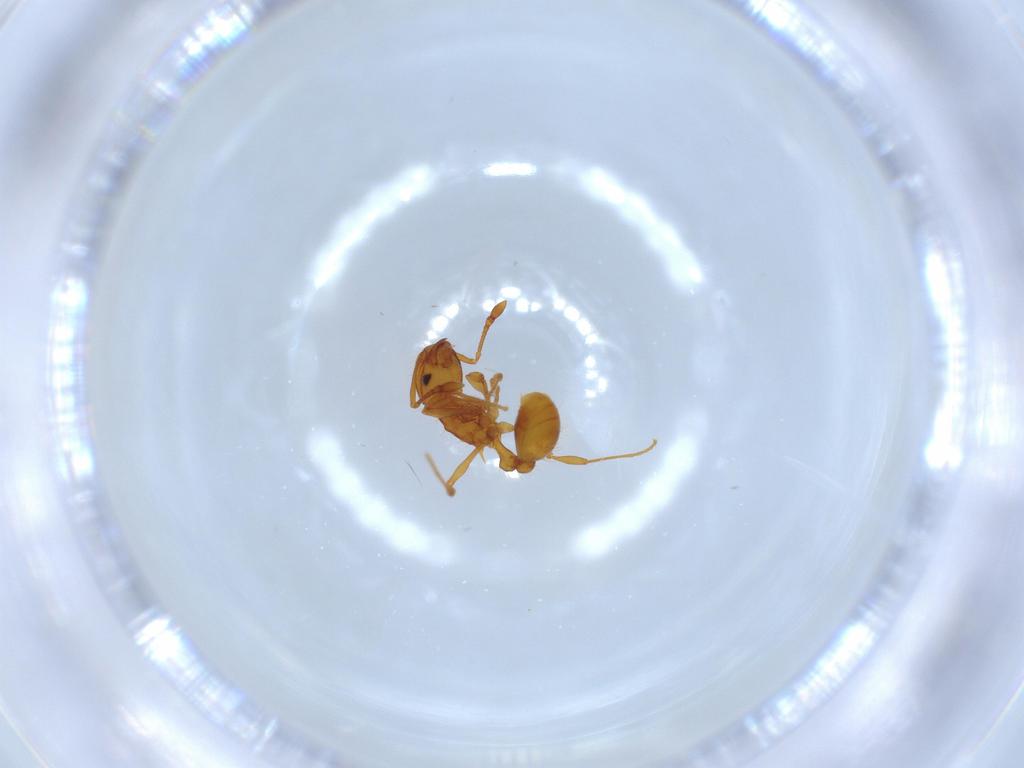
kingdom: Animalia
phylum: Arthropoda
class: Insecta
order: Hymenoptera
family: Formicidae
